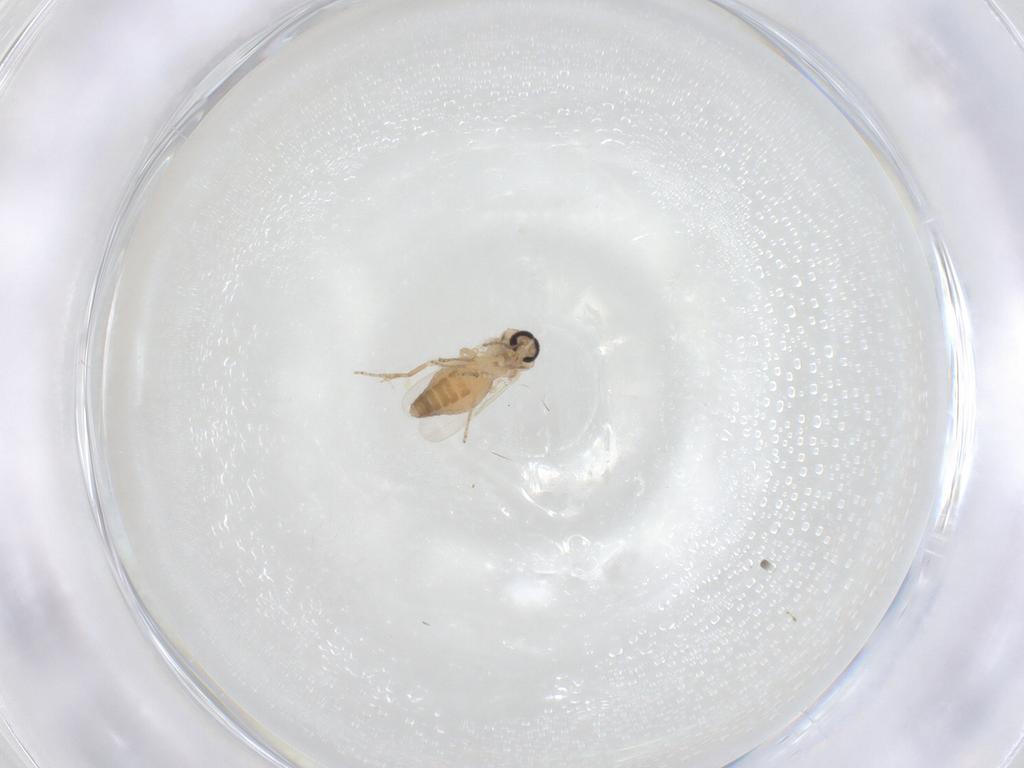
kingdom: Animalia
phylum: Arthropoda
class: Insecta
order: Diptera
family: Ceratopogonidae
